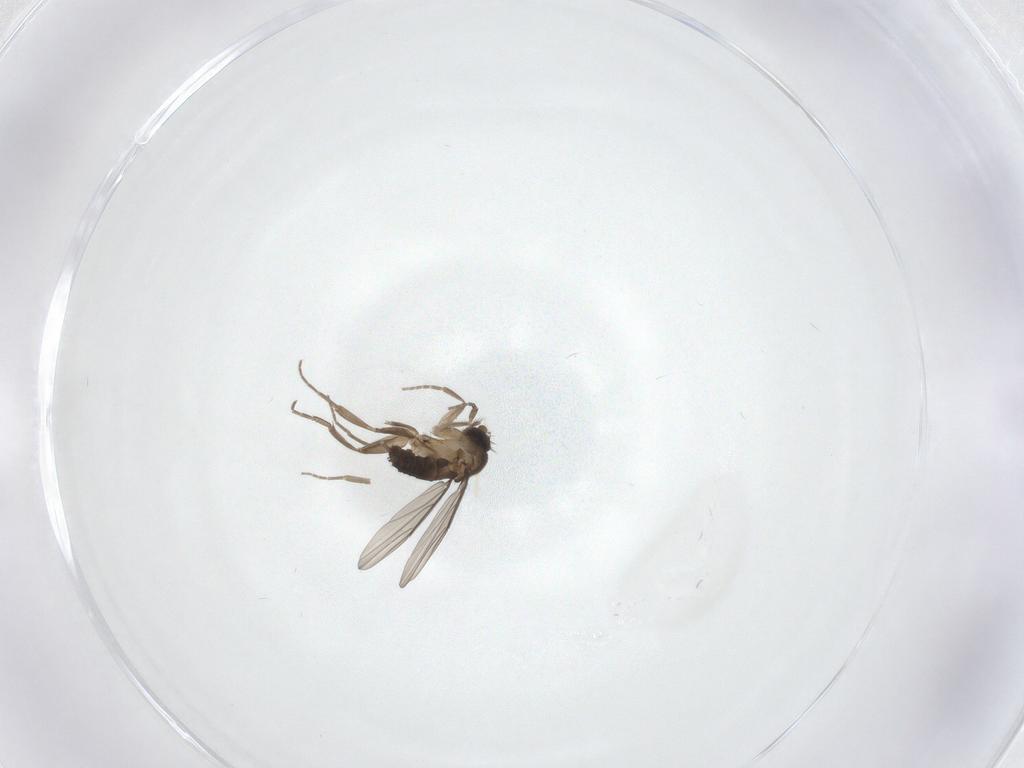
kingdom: Animalia
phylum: Arthropoda
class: Insecta
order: Diptera
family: Phoridae
